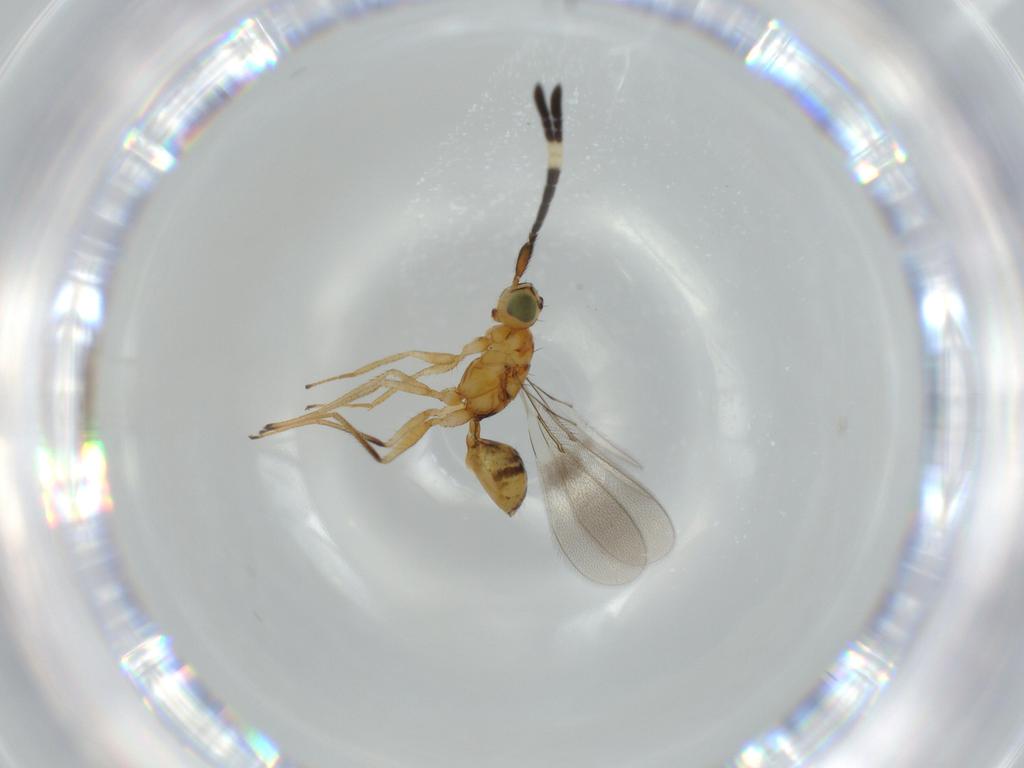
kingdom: Animalia
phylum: Arthropoda
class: Insecta
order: Hymenoptera
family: Mymaridae
